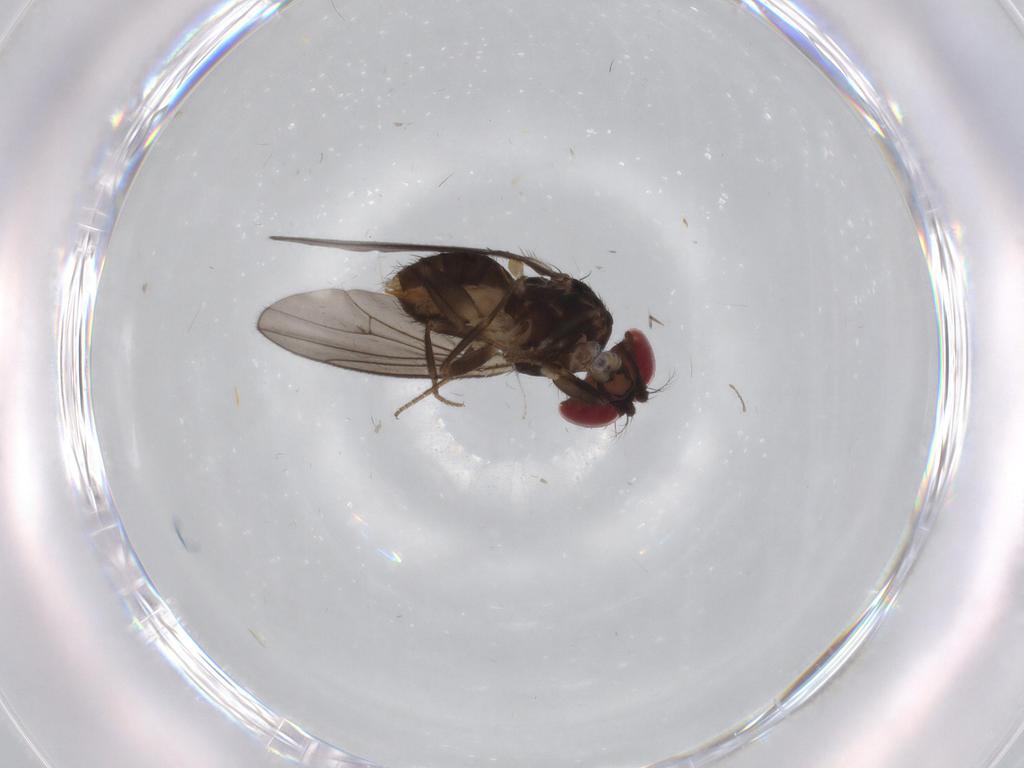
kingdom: Animalia
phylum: Arthropoda
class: Insecta
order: Diptera
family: Drosophilidae
